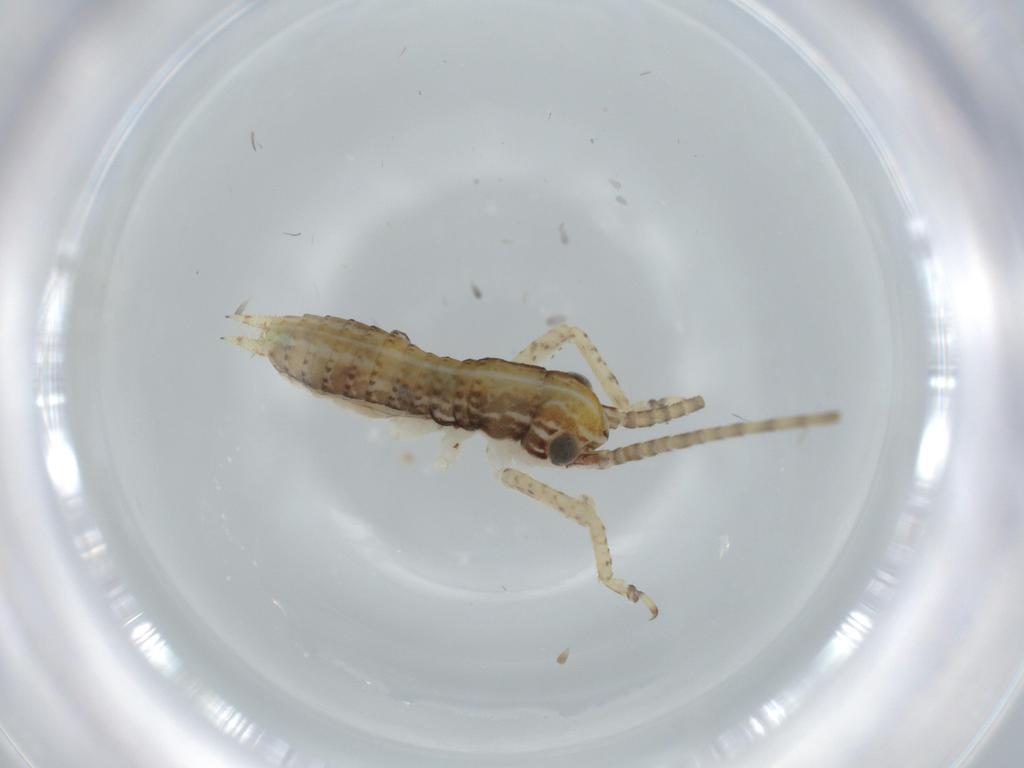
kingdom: Animalia
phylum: Arthropoda
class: Insecta
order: Orthoptera
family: Gryllidae
